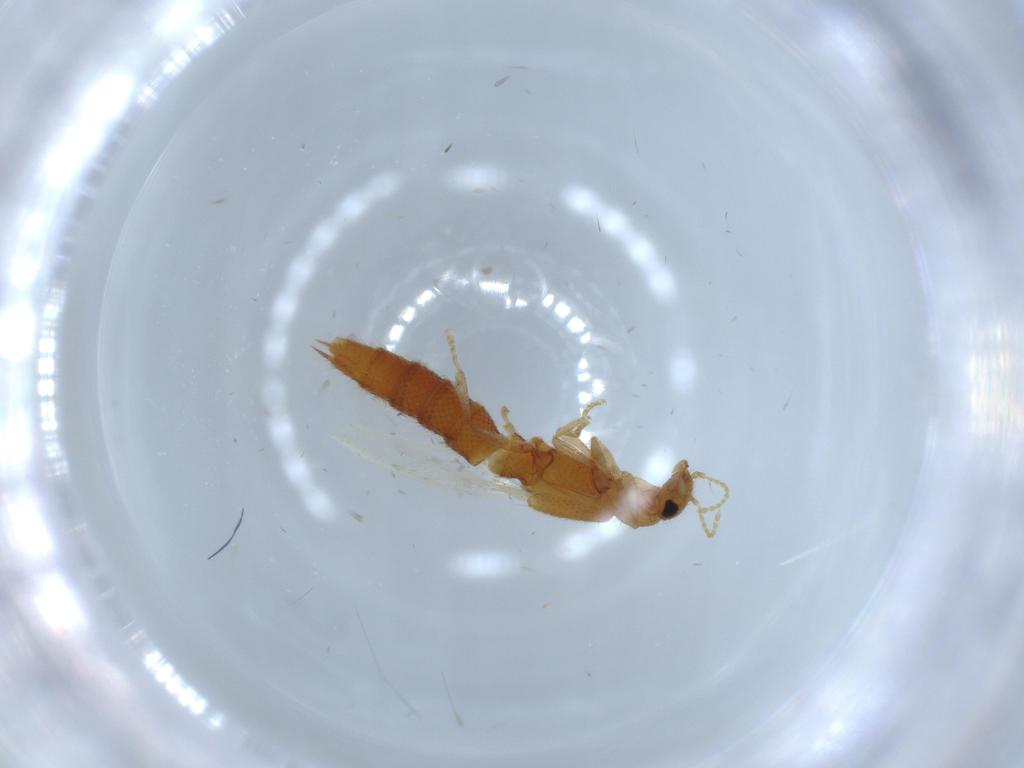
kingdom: Animalia
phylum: Arthropoda
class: Insecta
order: Coleoptera
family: Staphylinidae
